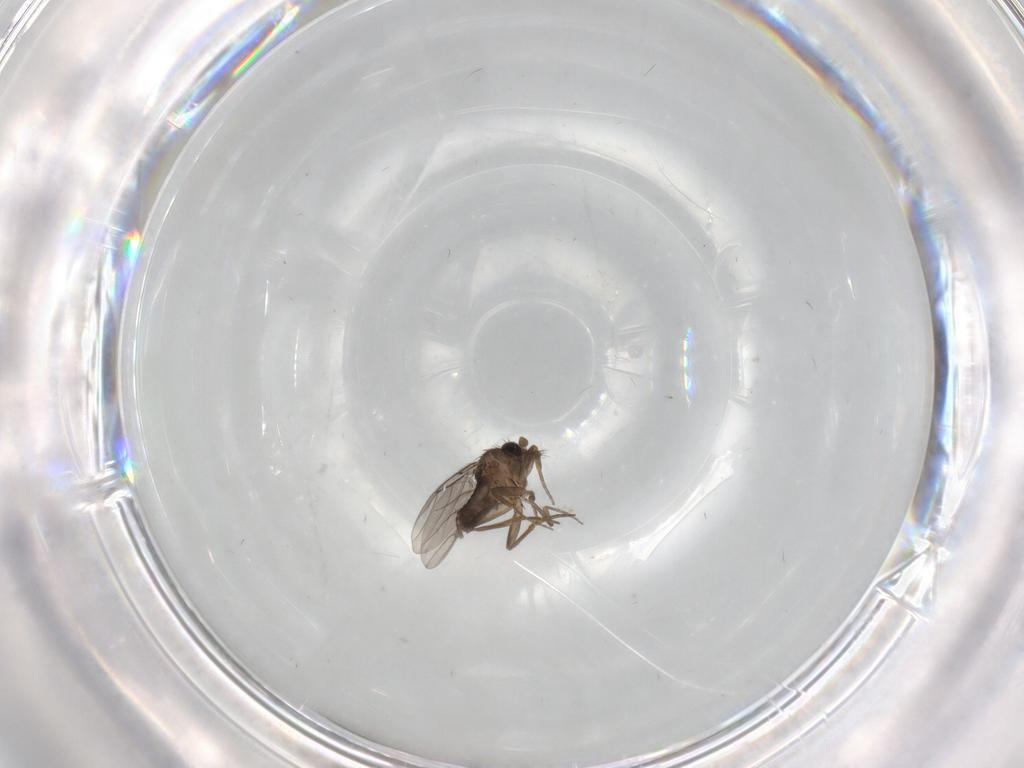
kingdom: Animalia
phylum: Arthropoda
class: Insecta
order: Diptera
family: Phoridae
